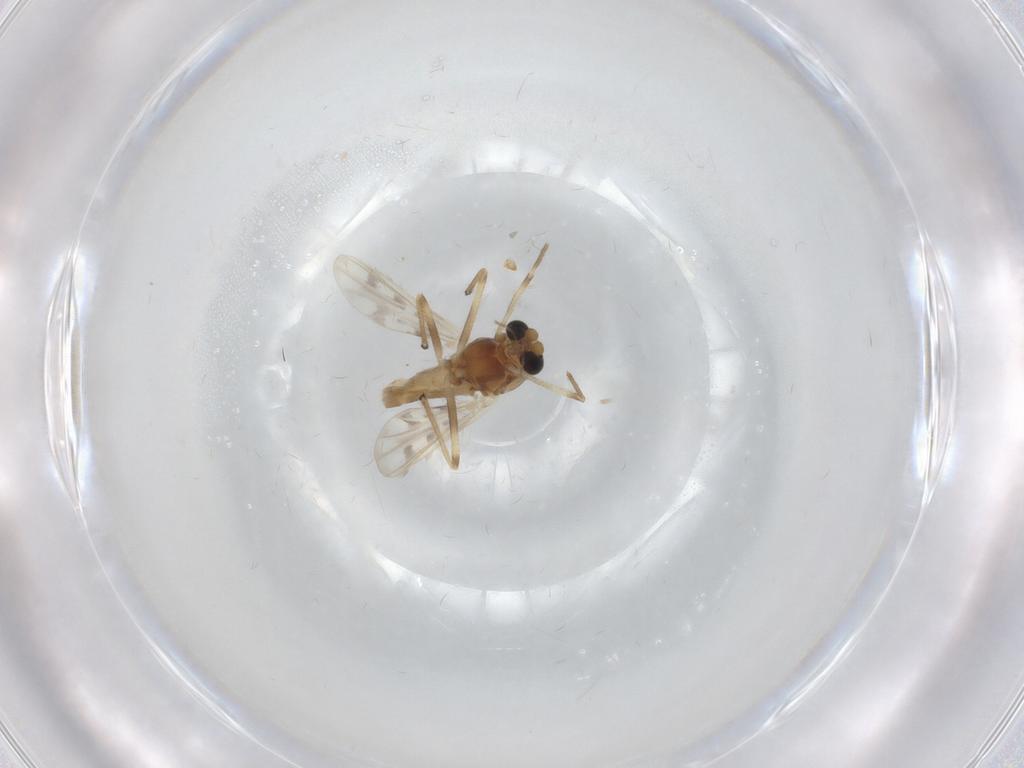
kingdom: Animalia
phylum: Arthropoda
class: Insecta
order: Diptera
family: Chironomidae
